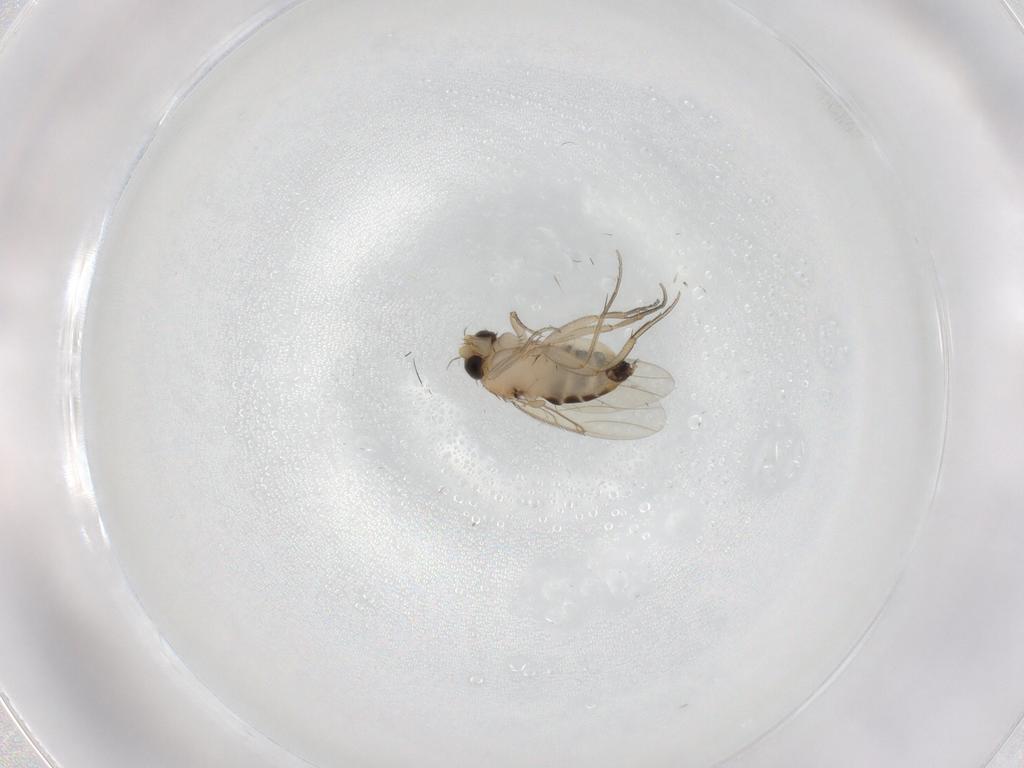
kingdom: Animalia
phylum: Arthropoda
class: Insecta
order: Diptera
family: Phoridae
